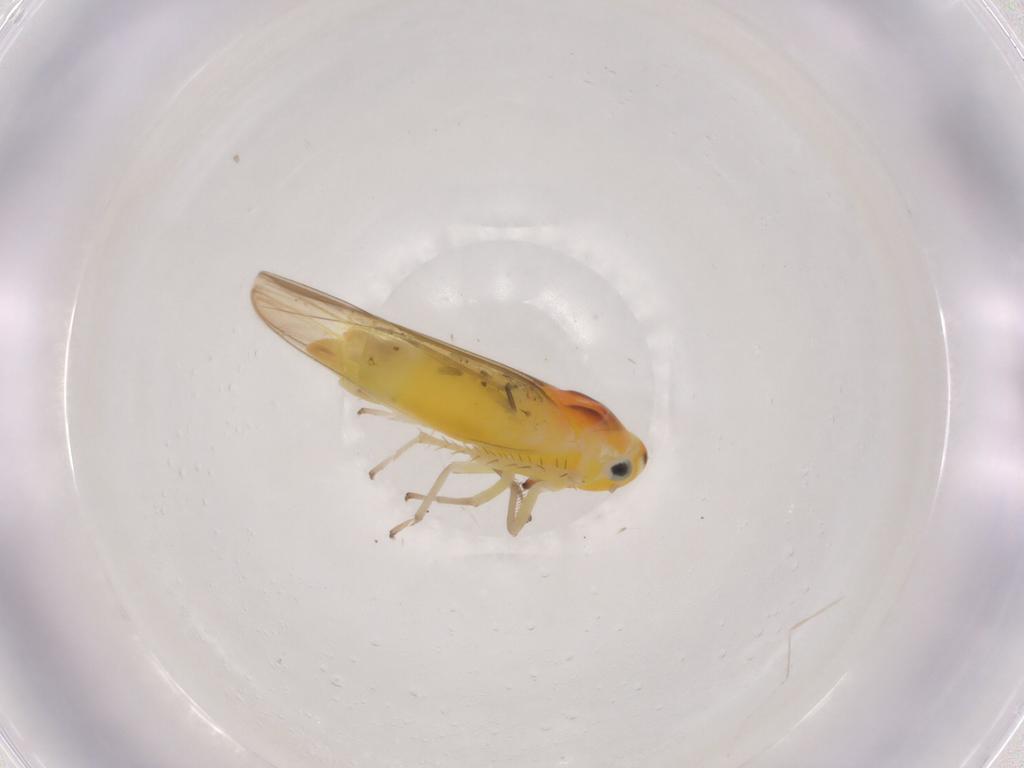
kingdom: Animalia
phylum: Arthropoda
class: Insecta
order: Hemiptera
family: Cicadellidae
